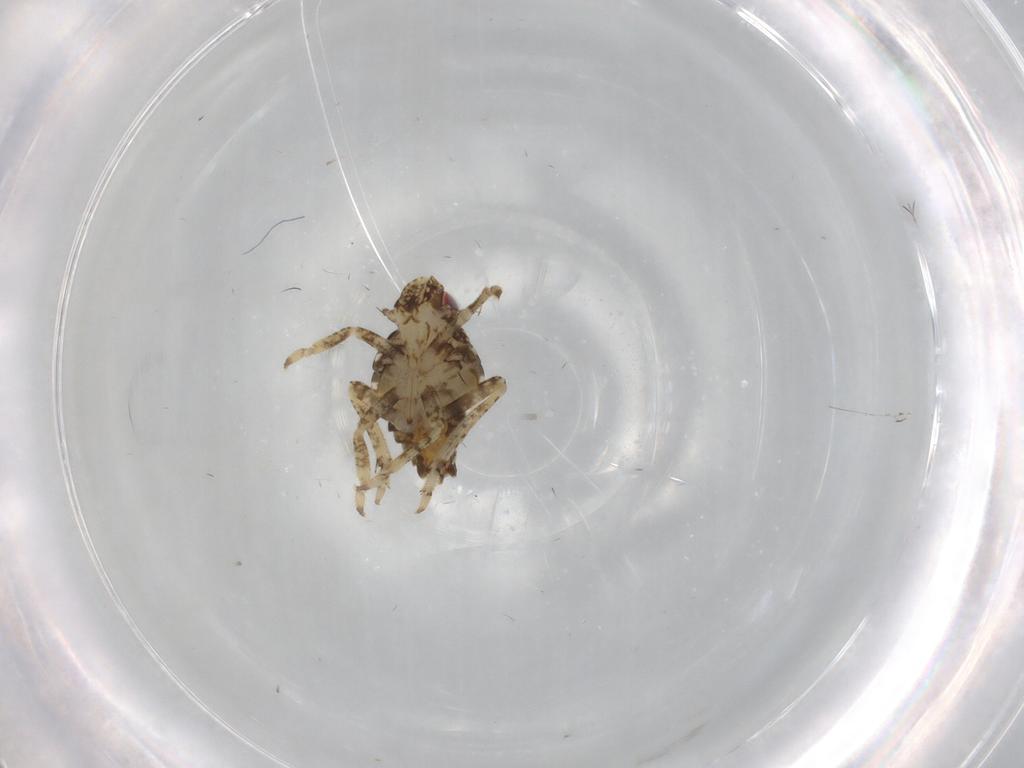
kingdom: Animalia
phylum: Arthropoda
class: Insecta
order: Hemiptera
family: Issidae
